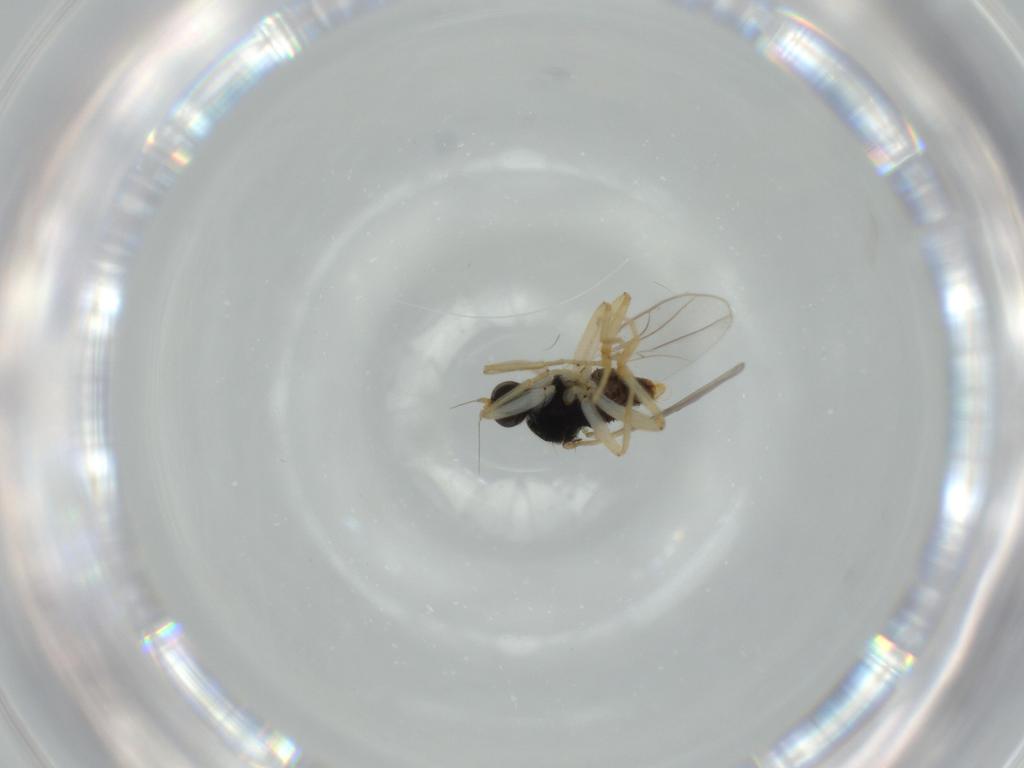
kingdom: Animalia
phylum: Arthropoda
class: Insecta
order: Diptera
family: Hybotidae
